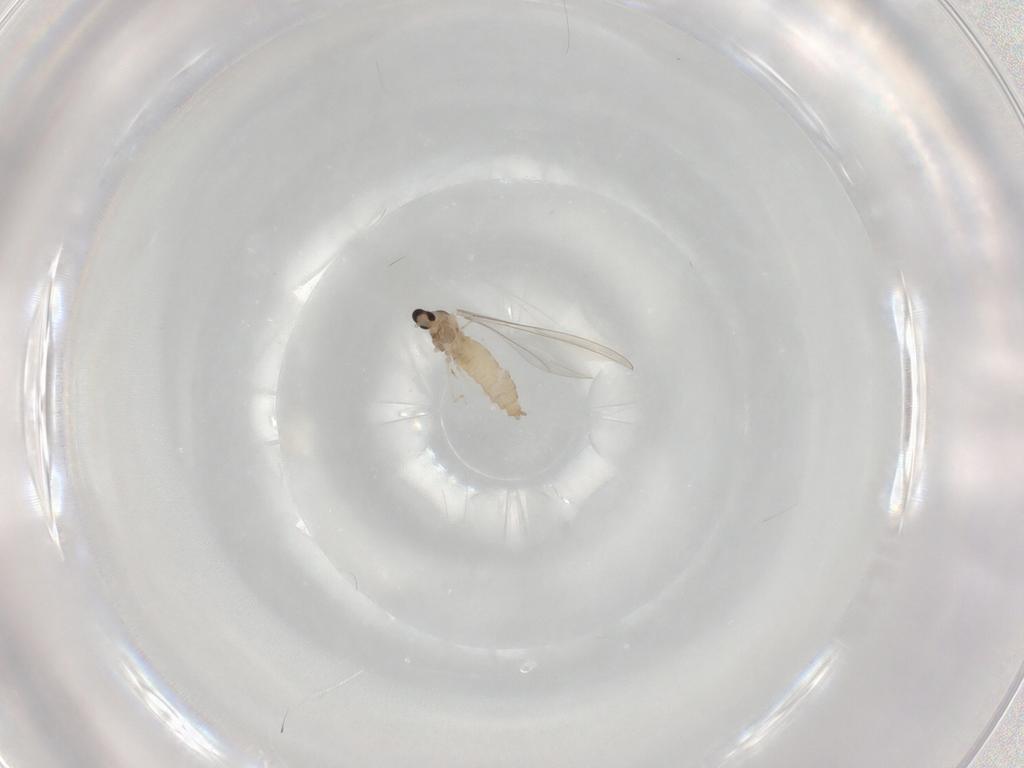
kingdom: Animalia
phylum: Arthropoda
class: Insecta
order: Diptera
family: Cecidomyiidae
